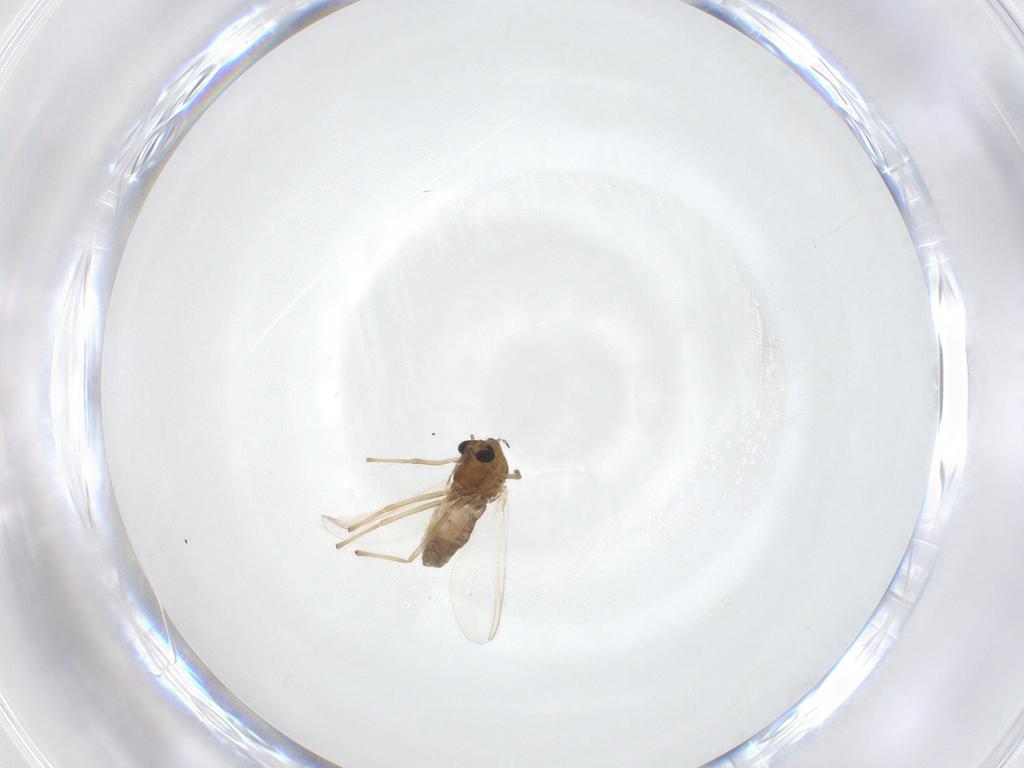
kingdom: Animalia
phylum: Arthropoda
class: Insecta
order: Diptera
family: Chironomidae
